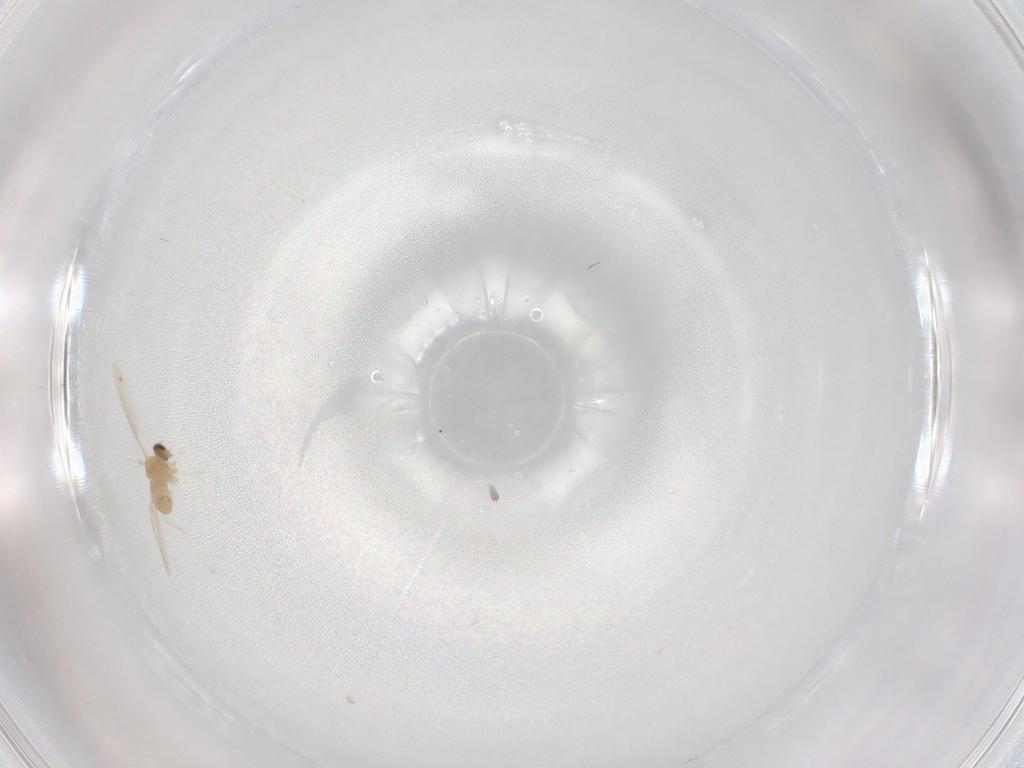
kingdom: Animalia
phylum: Arthropoda
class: Insecta
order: Diptera
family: Cecidomyiidae
